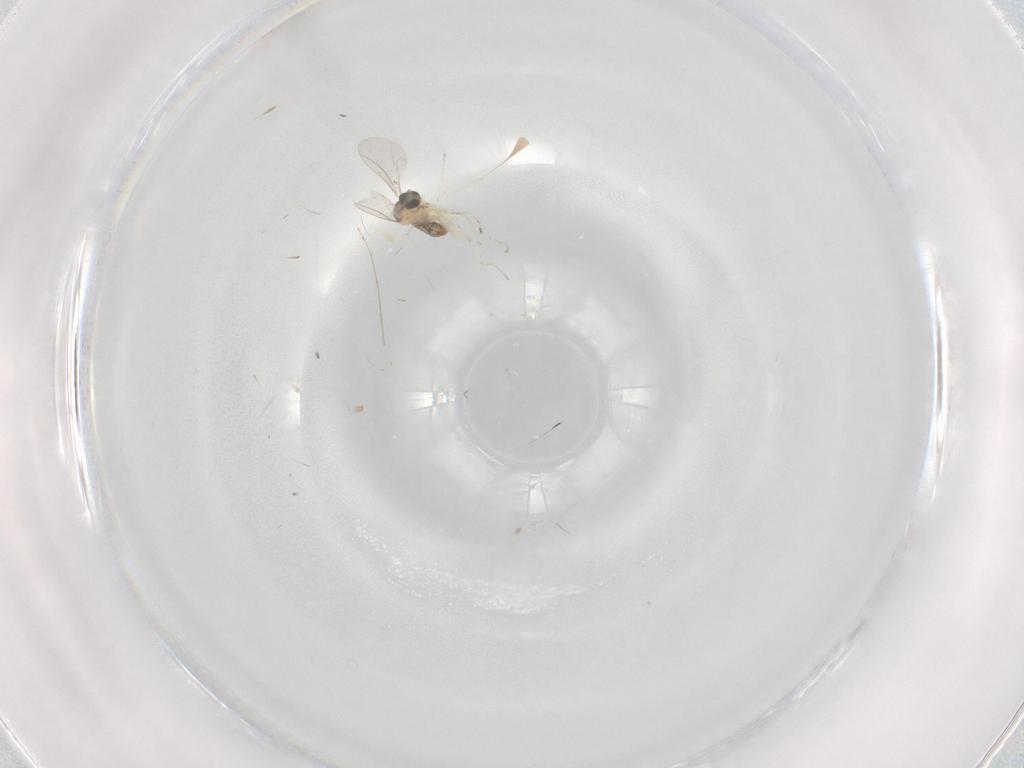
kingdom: Animalia
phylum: Arthropoda
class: Insecta
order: Diptera
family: Cecidomyiidae
